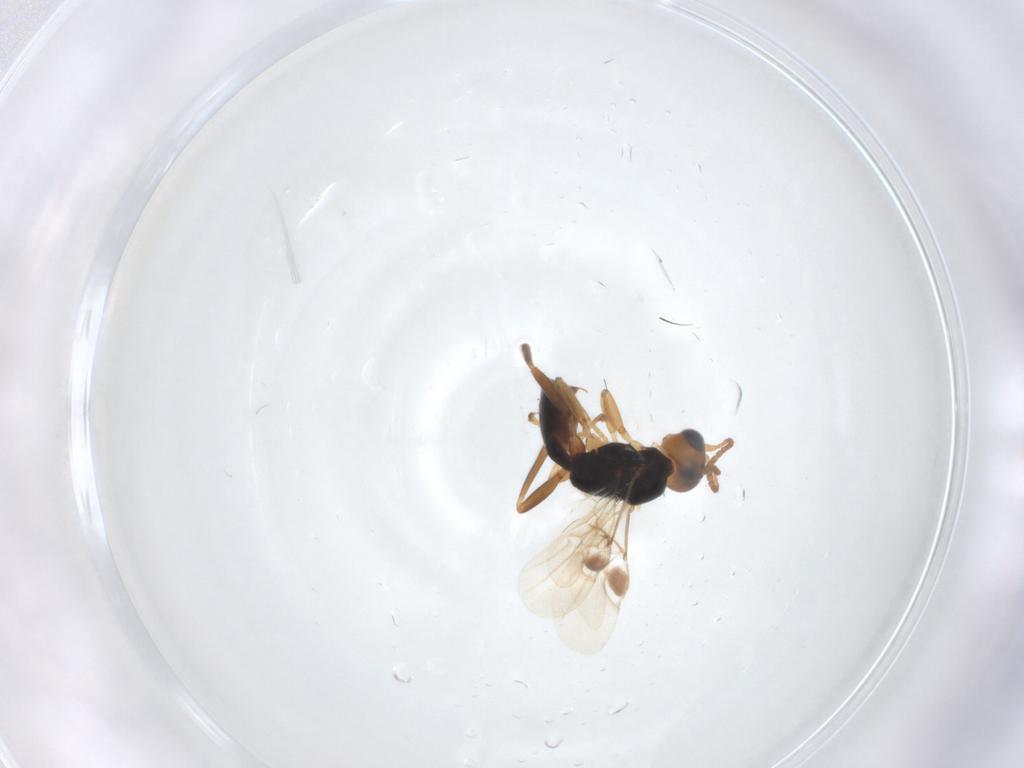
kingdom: Animalia
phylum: Arthropoda
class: Insecta
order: Hymenoptera
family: Braconidae
